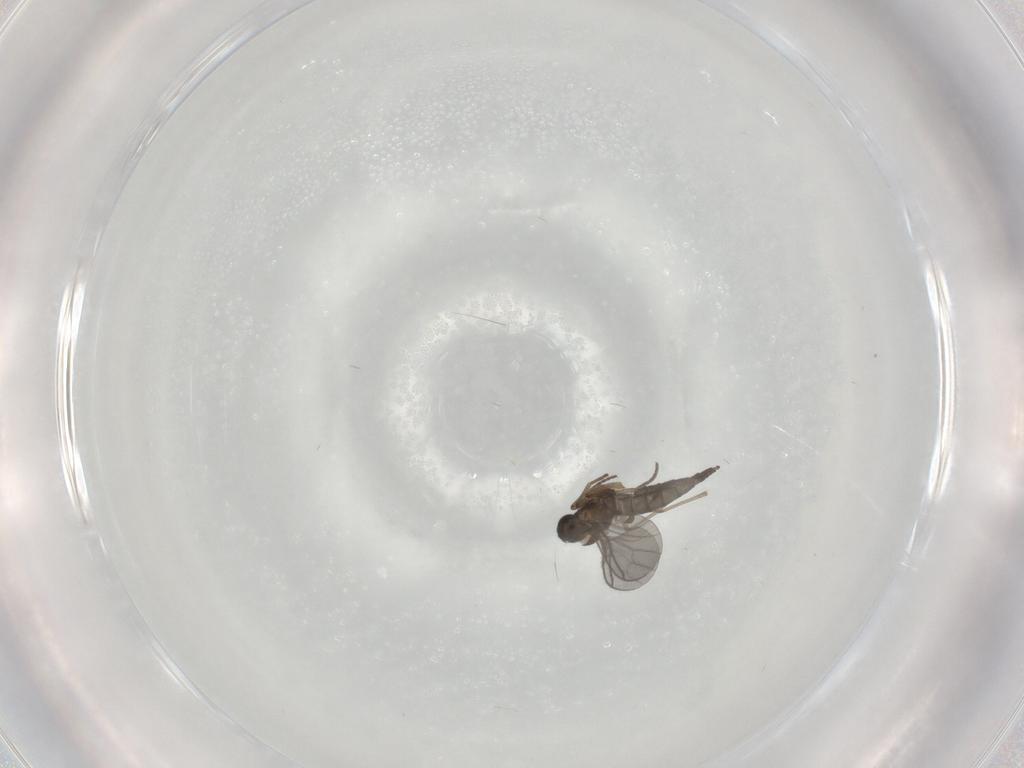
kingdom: Animalia
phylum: Arthropoda
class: Insecta
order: Diptera
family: Sciaridae
